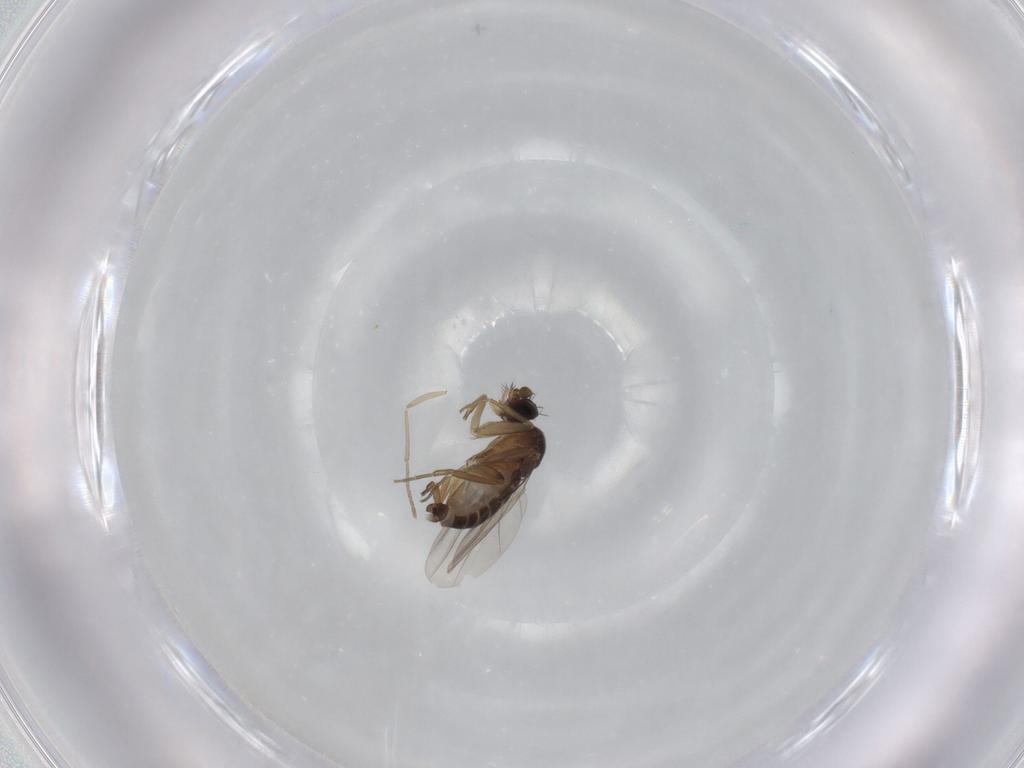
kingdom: Animalia
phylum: Arthropoda
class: Insecta
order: Diptera
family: Phoridae
